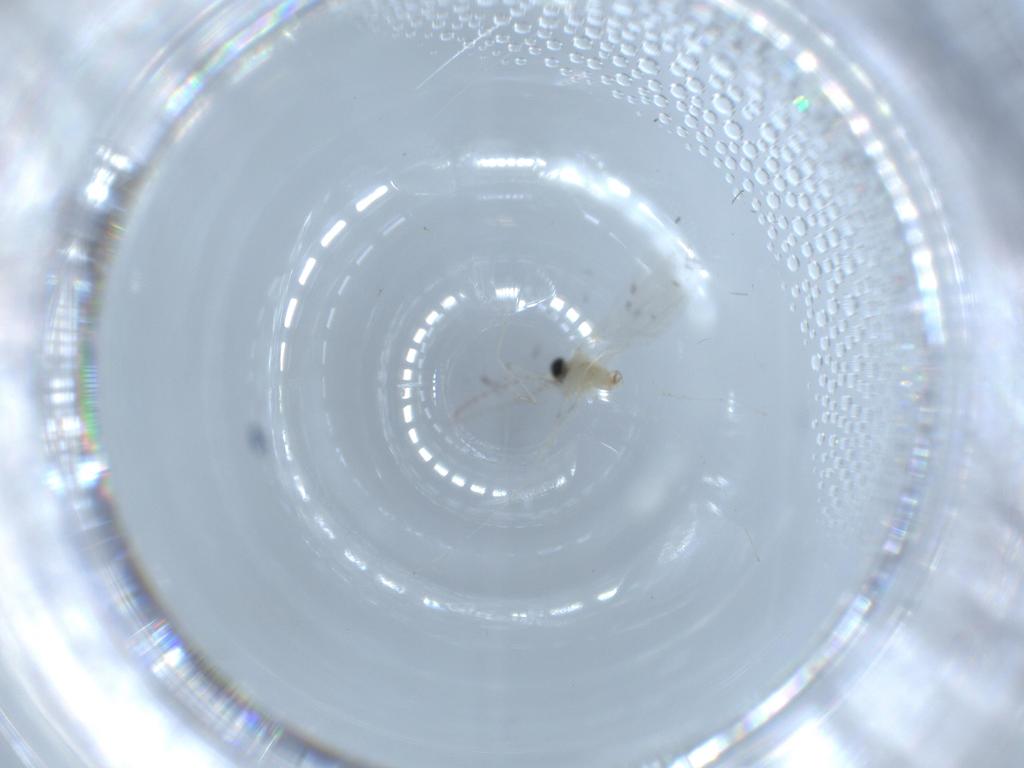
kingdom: Animalia
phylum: Arthropoda
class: Insecta
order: Diptera
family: Cecidomyiidae
